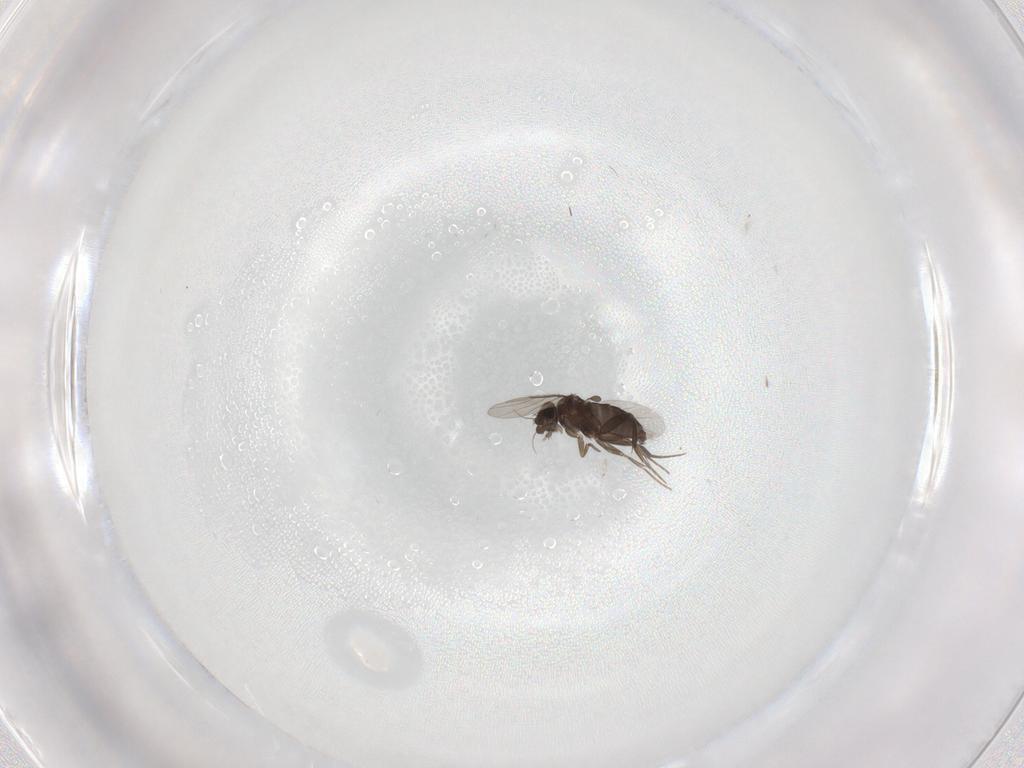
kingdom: Animalia
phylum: Arthropoda
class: Insecta
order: Diptera
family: Phoridae
